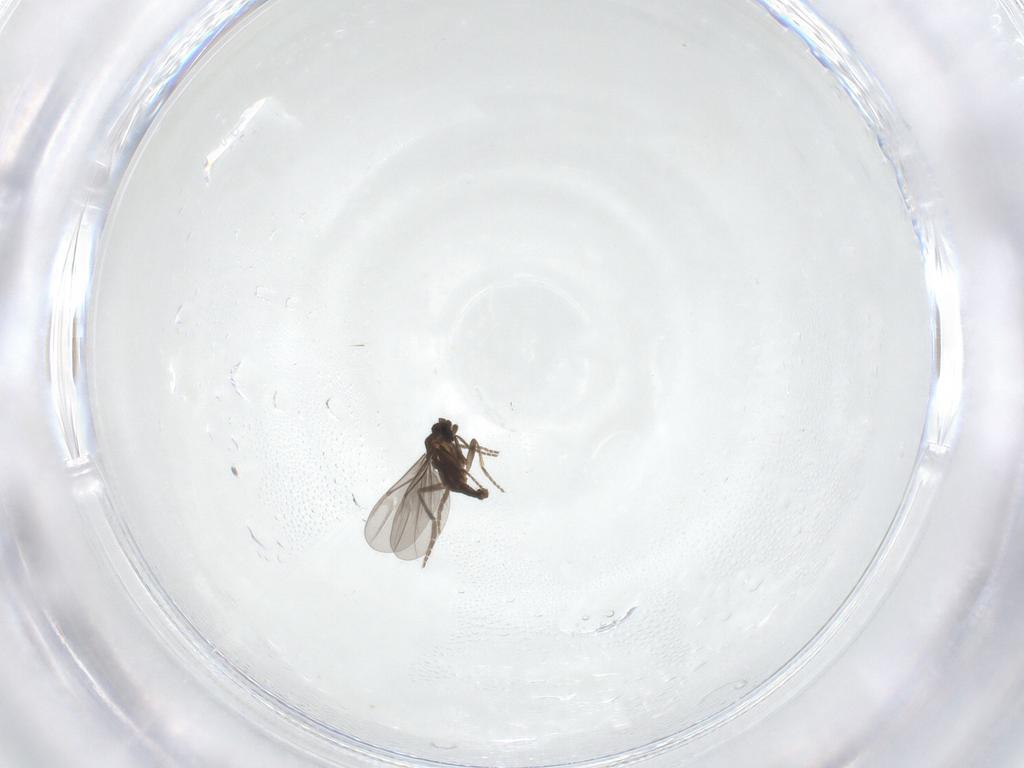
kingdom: Animalia
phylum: Arthropoda
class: Insecta
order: Diptera
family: Phoridae
